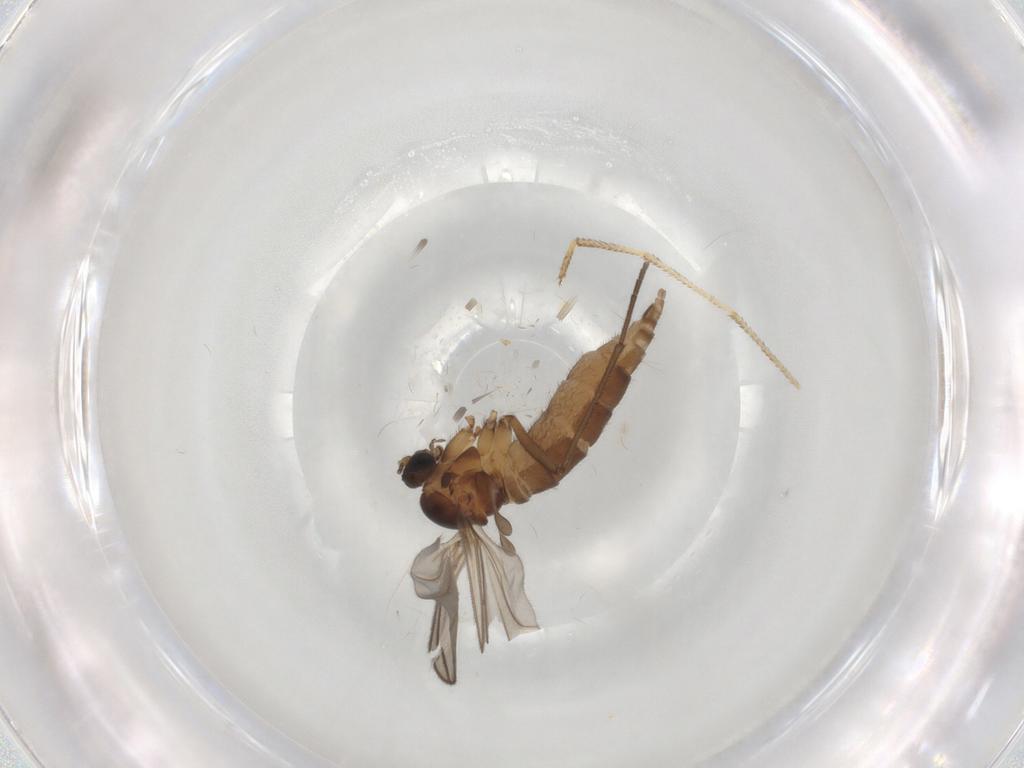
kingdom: Animalia
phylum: Arthropoda
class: Insecta
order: Diptera
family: Sciaridae
